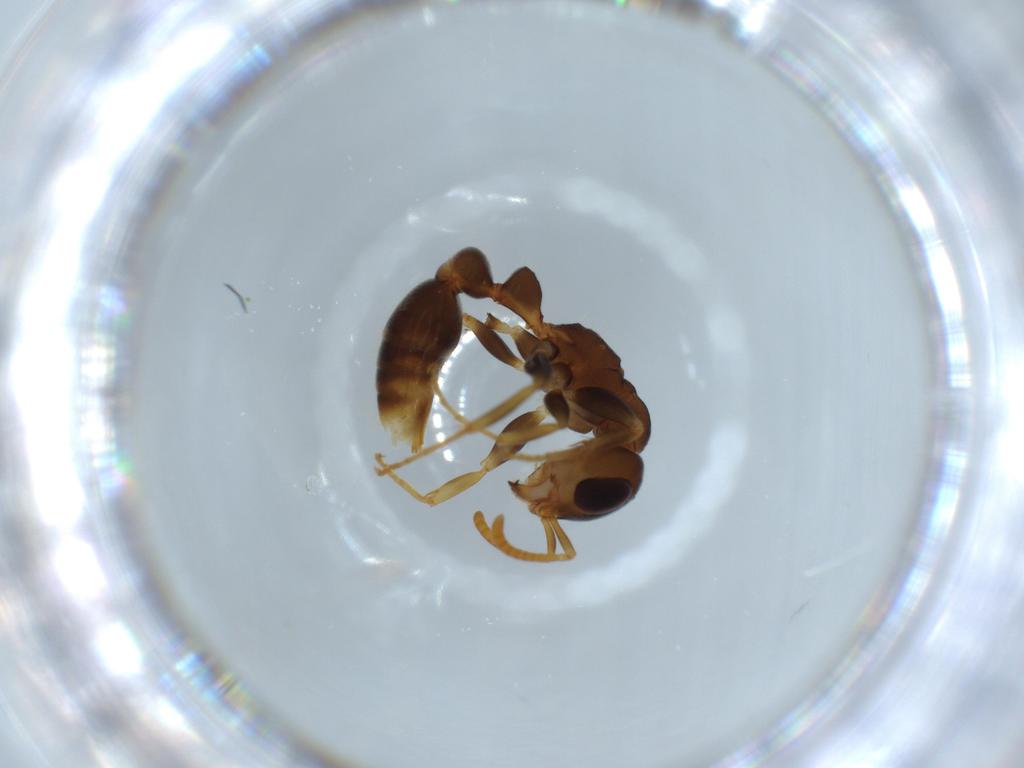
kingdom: Animalia
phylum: Arthropoda
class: Insecta
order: Hymenoptera
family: Formicidae
